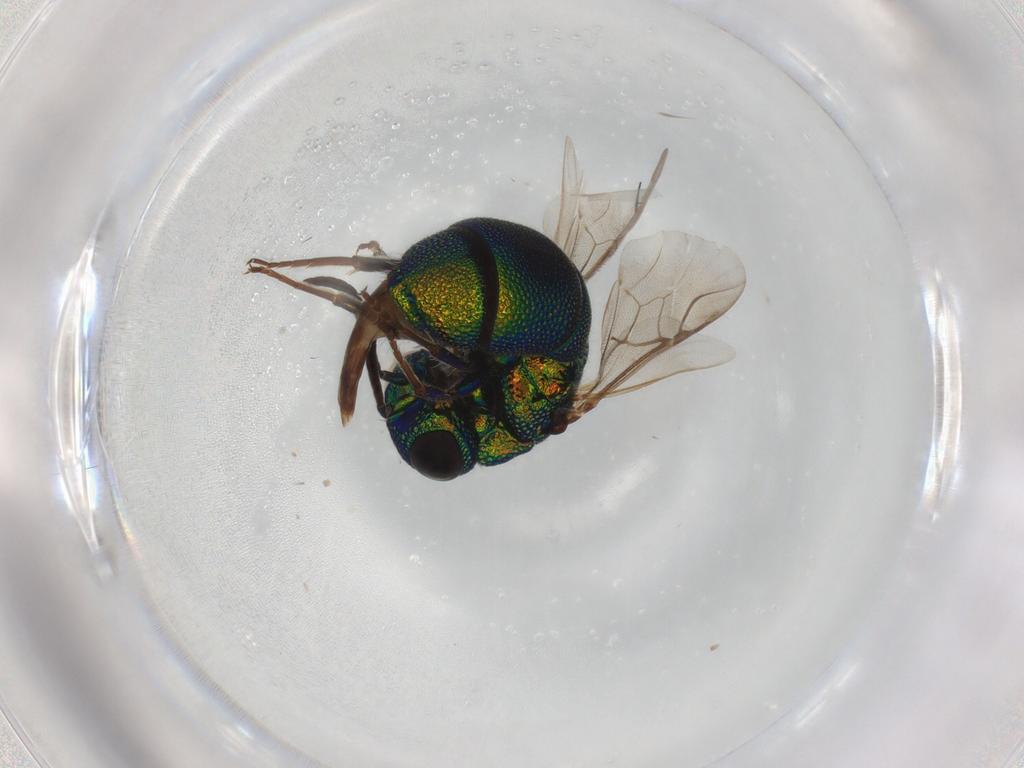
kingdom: Animalia
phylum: Arthropoda
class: Insecta
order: Hymenoptera
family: Chrysididae
